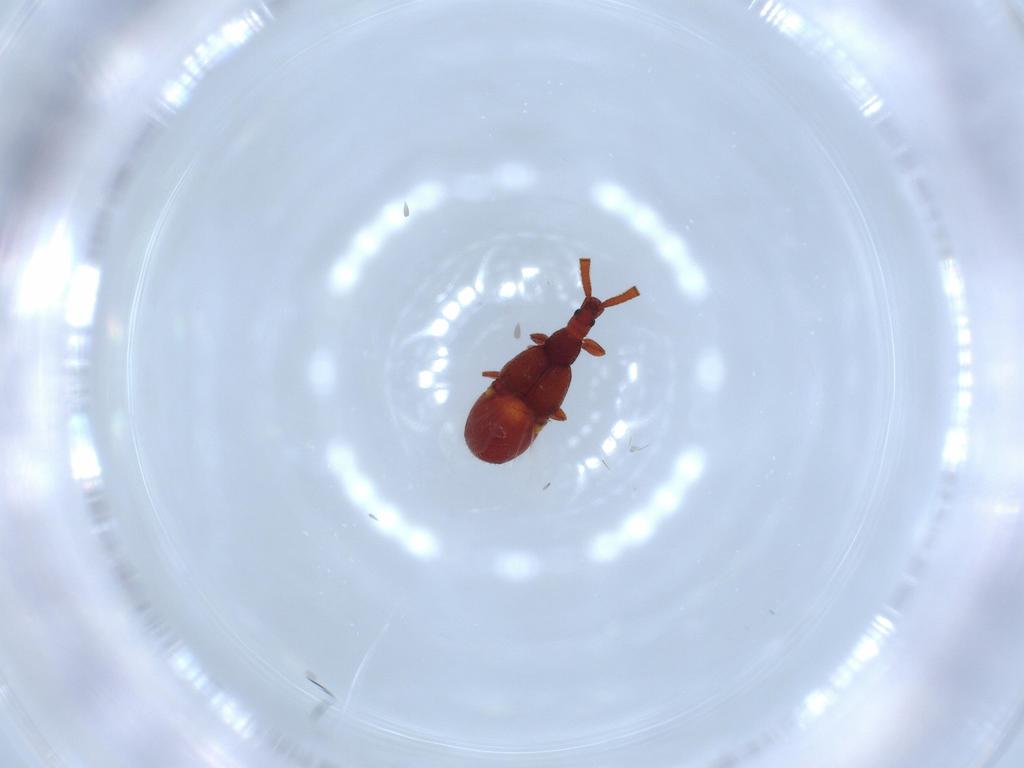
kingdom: Animalia
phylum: Arthropoda
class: Insecta
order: Coleoptera
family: Staphylinidae
